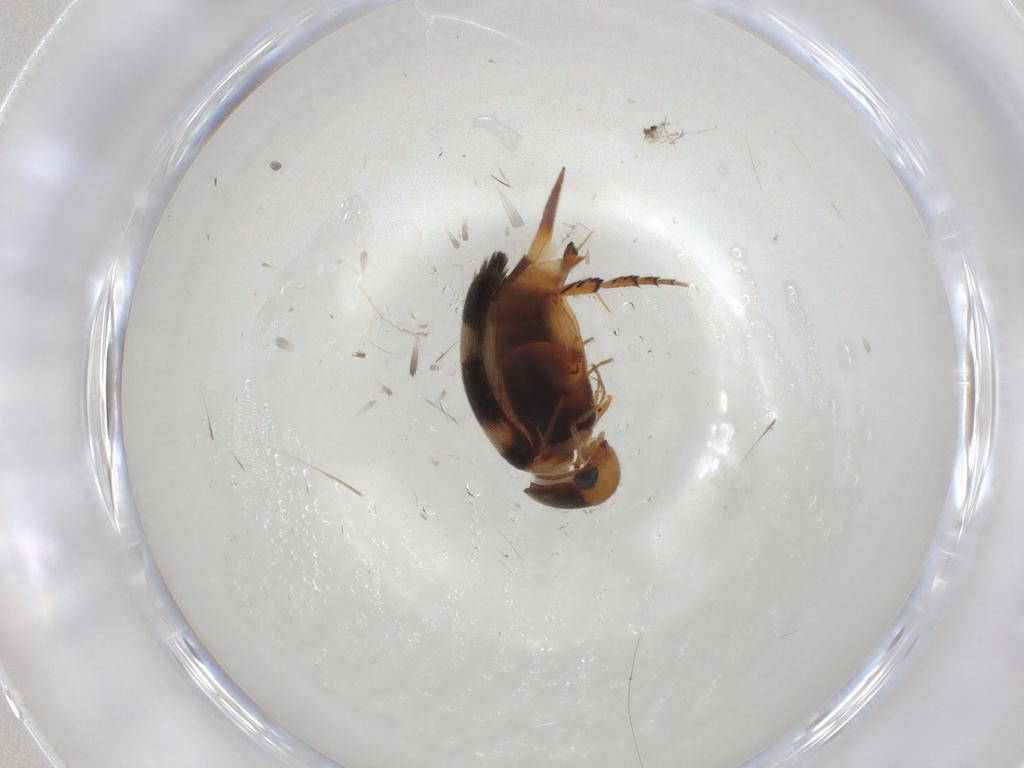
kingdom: Animalia
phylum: Arthropoda
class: Insecta
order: Coleoptera
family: Mordellidae
